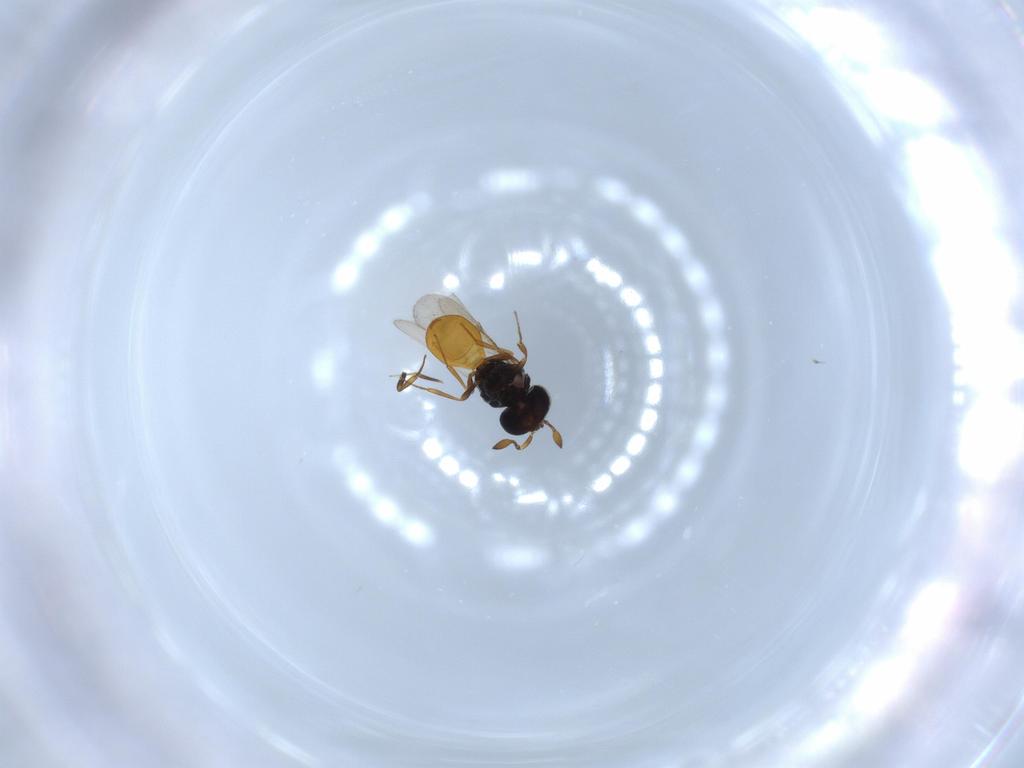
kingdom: Animalia
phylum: Arthropoda
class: Insecta
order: Hymenoptera
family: Scelionidae
